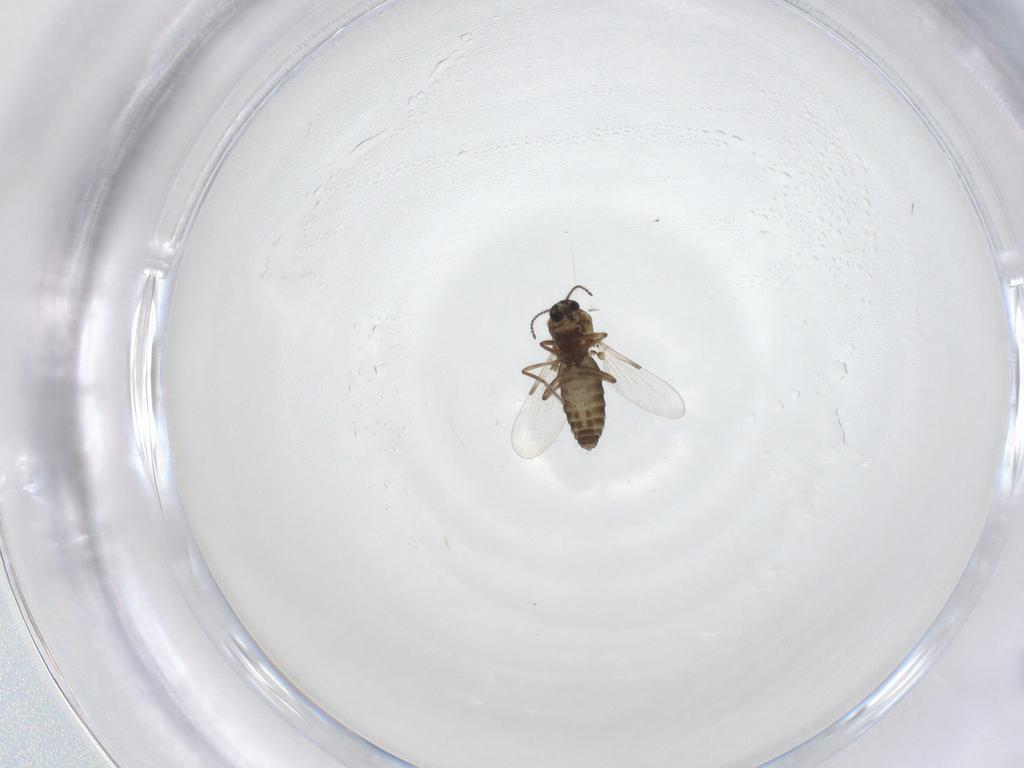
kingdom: Animalia
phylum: Arthropoda
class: Insecta
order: Diptera
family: Ceratopogonidae
